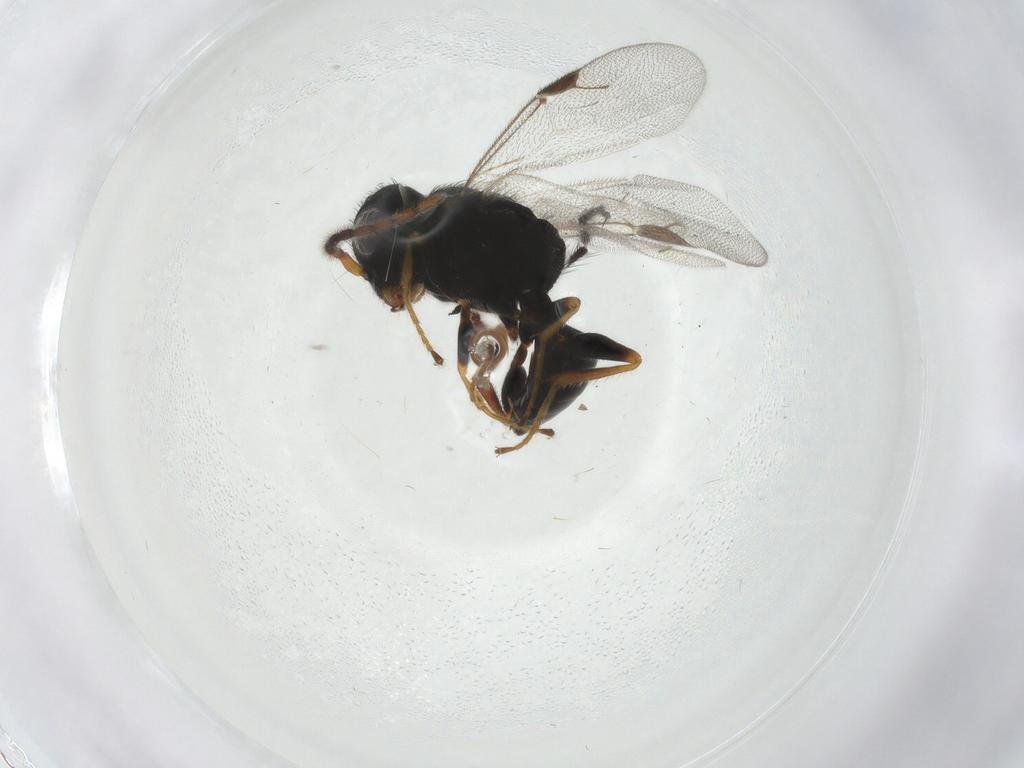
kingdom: Animalia
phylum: Arthropoda
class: Insecta
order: Hymenoptera
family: Dryinidae
